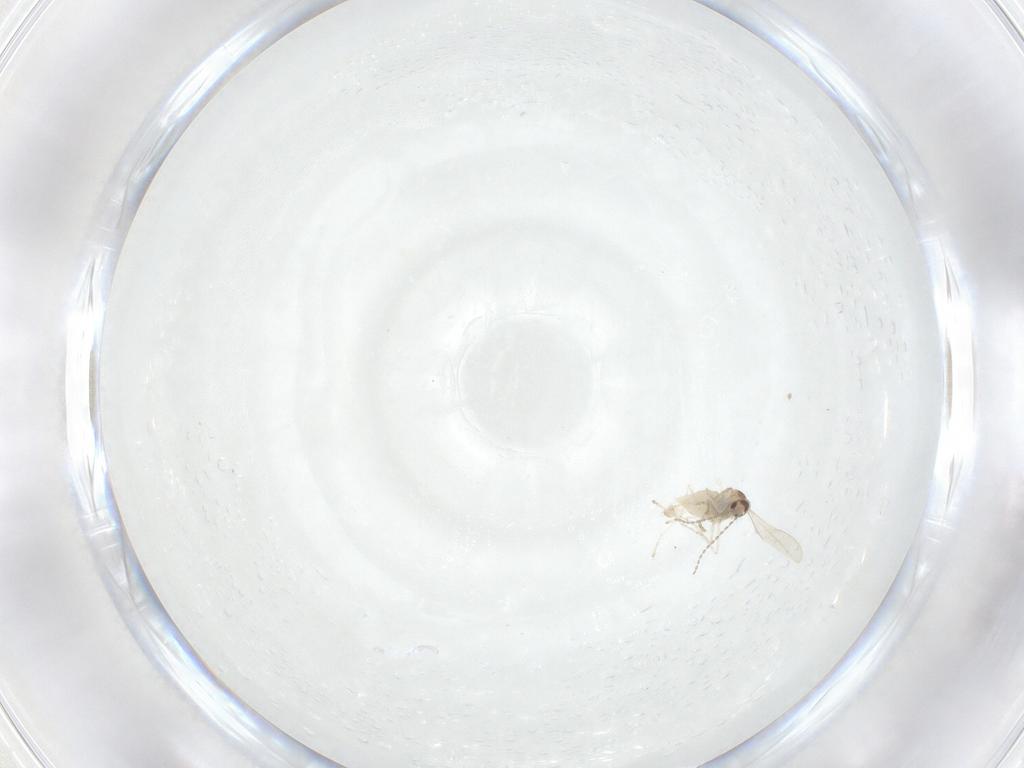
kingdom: Animalia
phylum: Arthropoda
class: Insecta
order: Diptera
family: Cecidomyiidae
